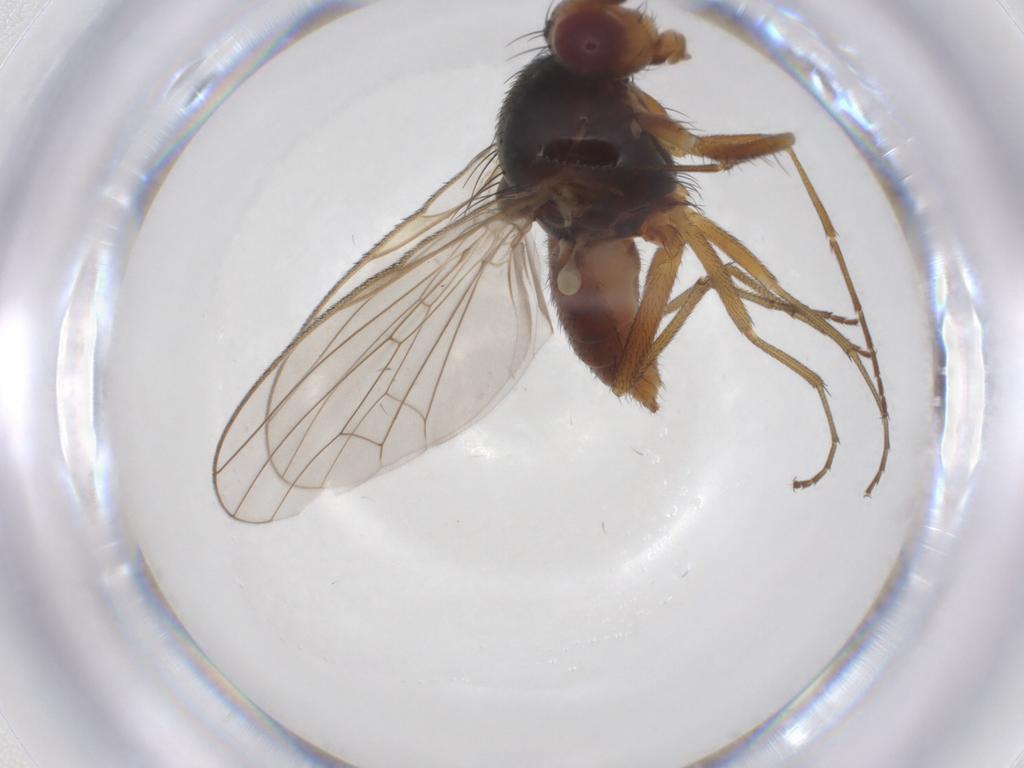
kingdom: Animalia
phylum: Arthropoda
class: Insecta
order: Diptera
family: Heleomyzidae
